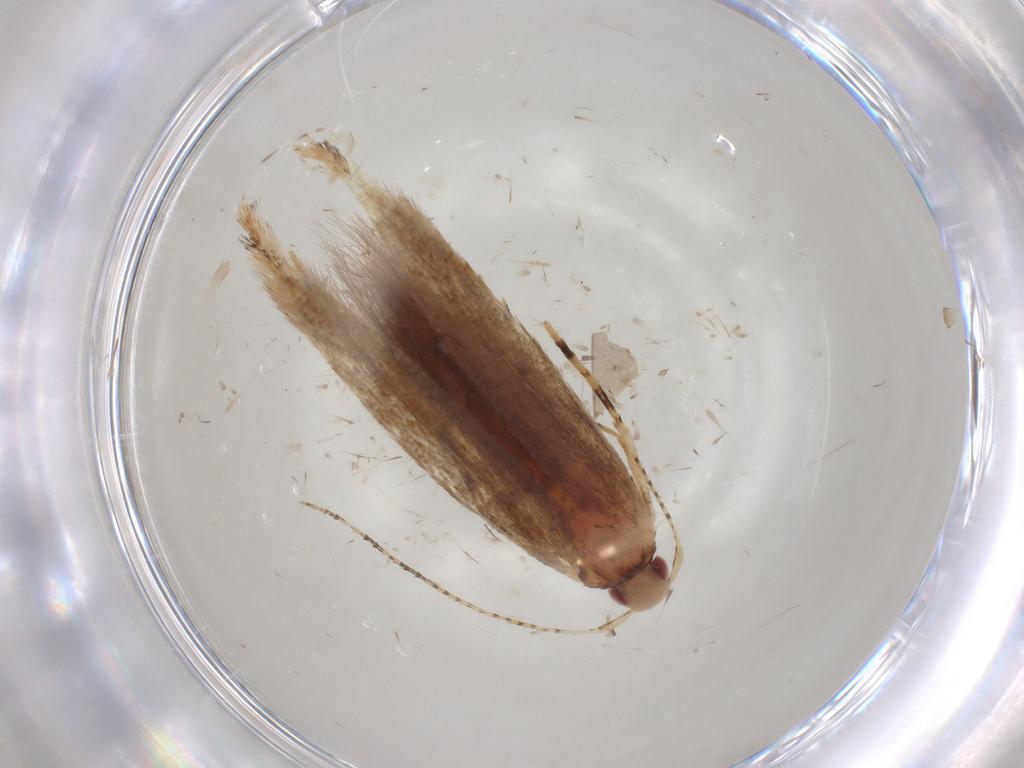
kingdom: Animalia
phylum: Arthropoda
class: Insecta
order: Lepidoptera
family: Cosmopterigidae
